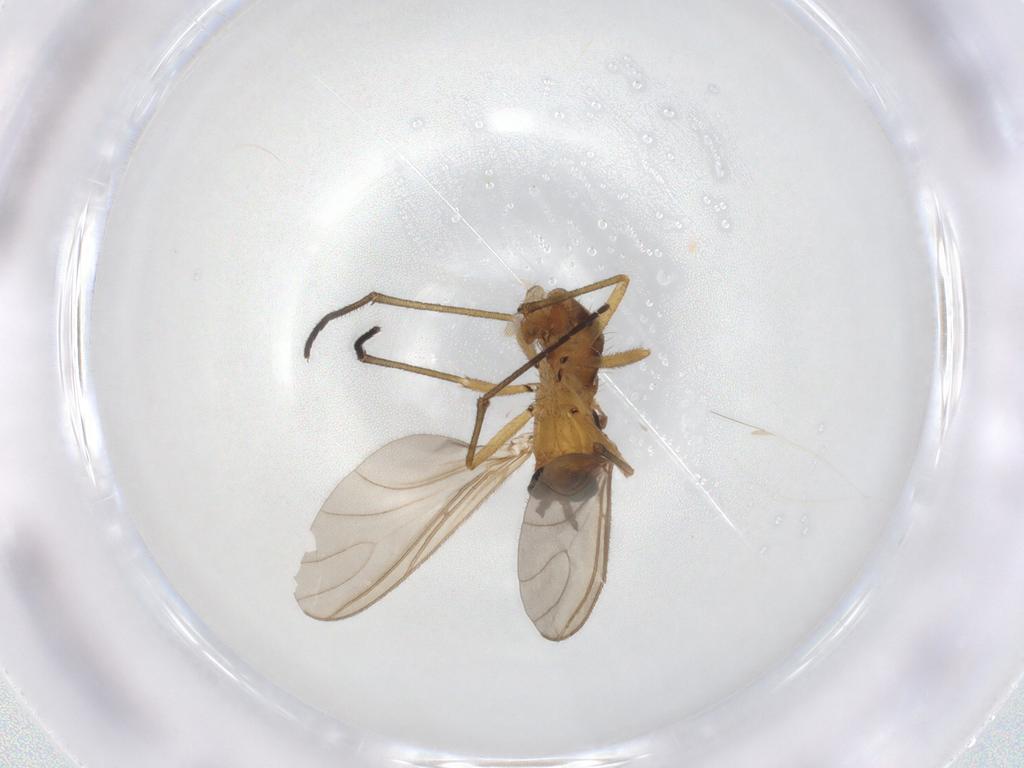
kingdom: Animalia
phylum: Arthropoda
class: Insecta
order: Diptera
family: Sciaridae
